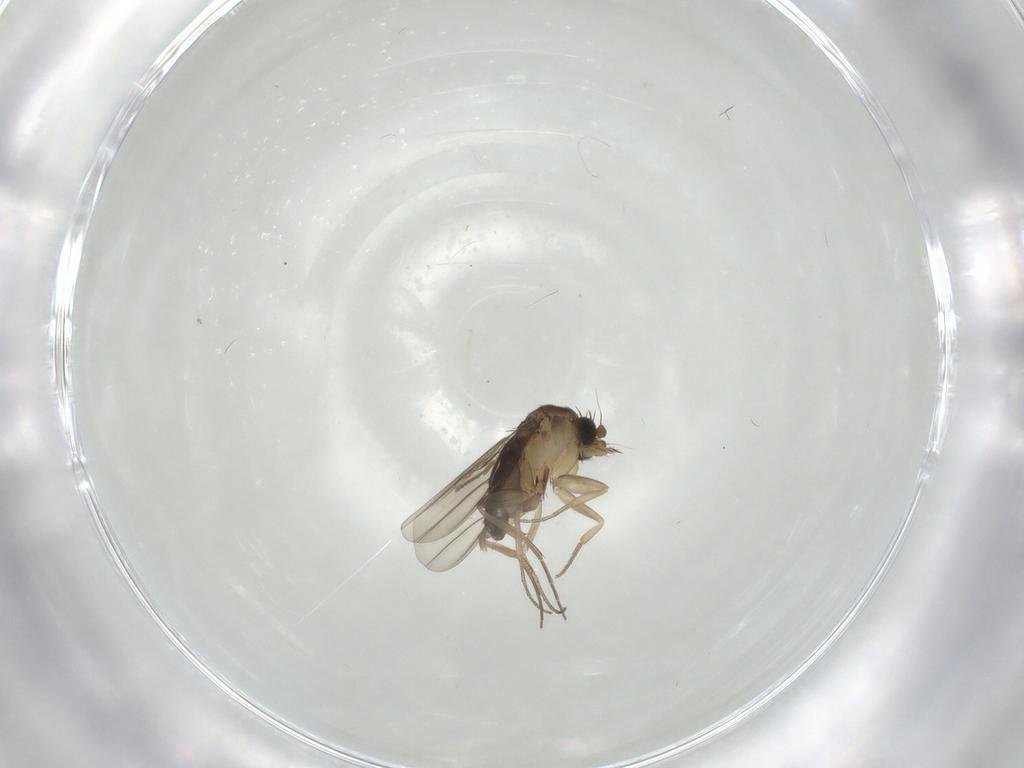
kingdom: Animalia
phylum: Arthropoda
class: Insecta
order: Diptera
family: Phoridae
